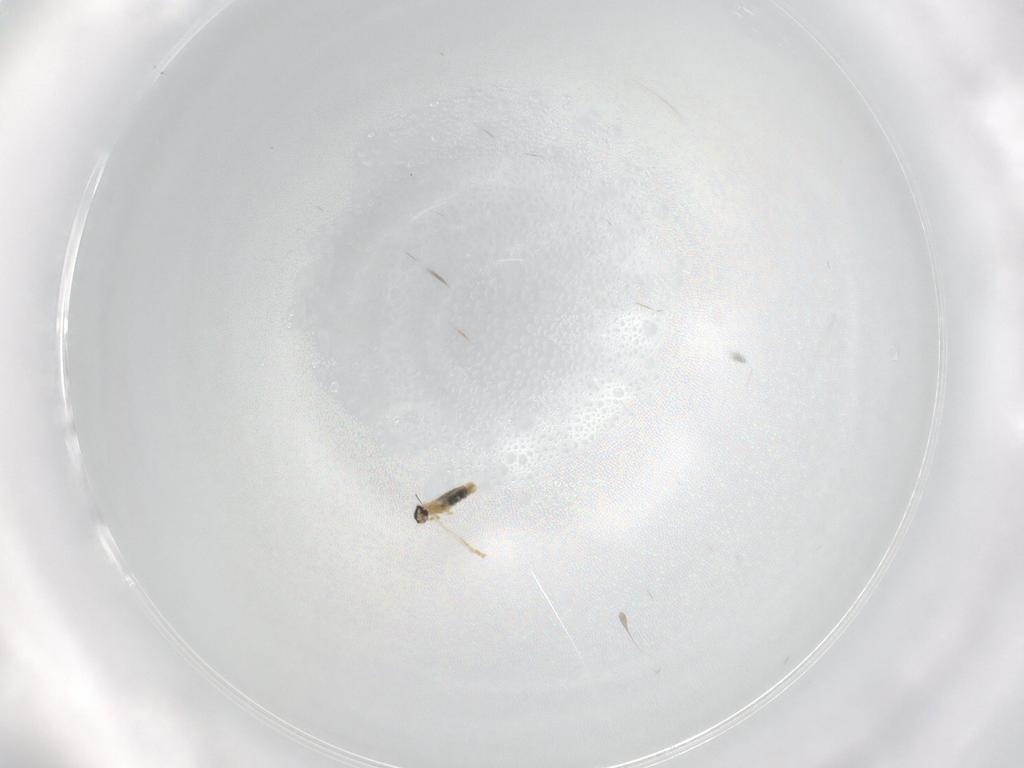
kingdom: Animalia
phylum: Arthropoda
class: Insecta
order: Diptera
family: Cecidomyiidae
